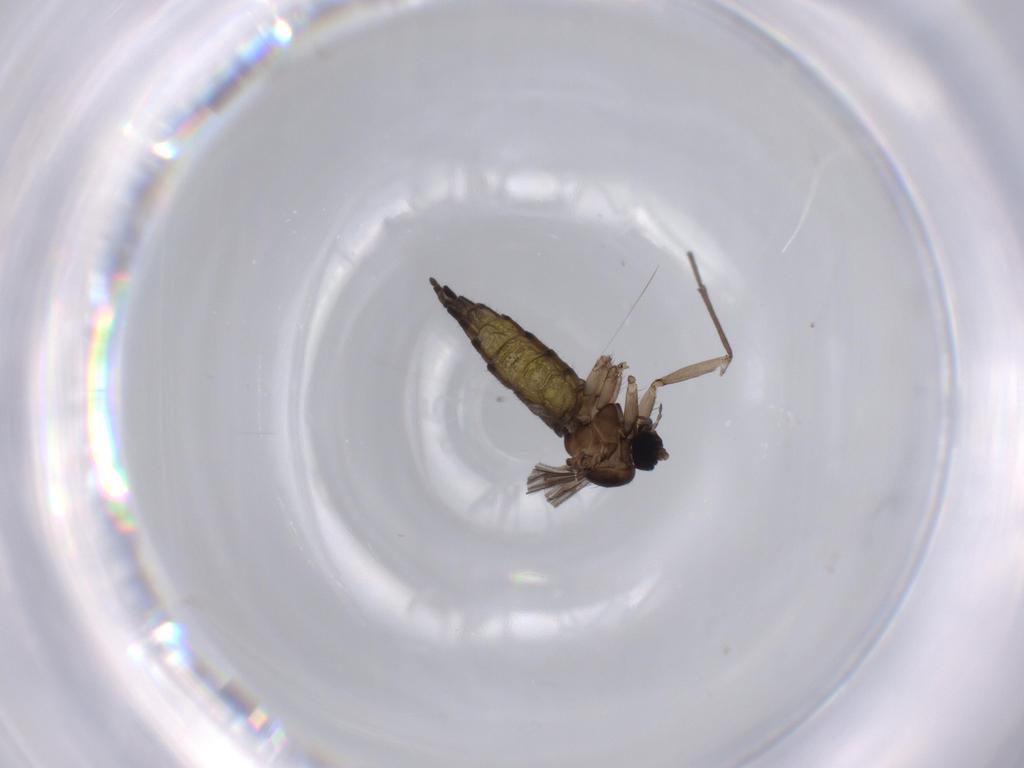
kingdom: Animalia
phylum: Arthropoda
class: Insecta
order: Diptera
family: Sciaridae
